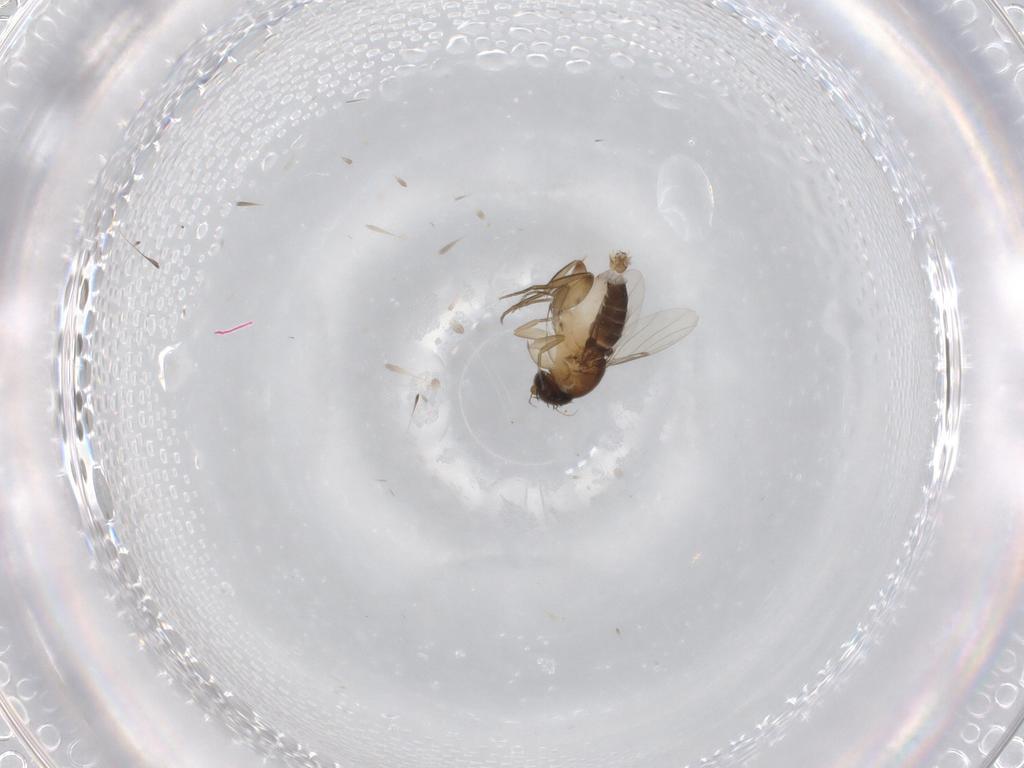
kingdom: Animalia
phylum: Arthropoda
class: Insecta
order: Diptera
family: Phoridae
